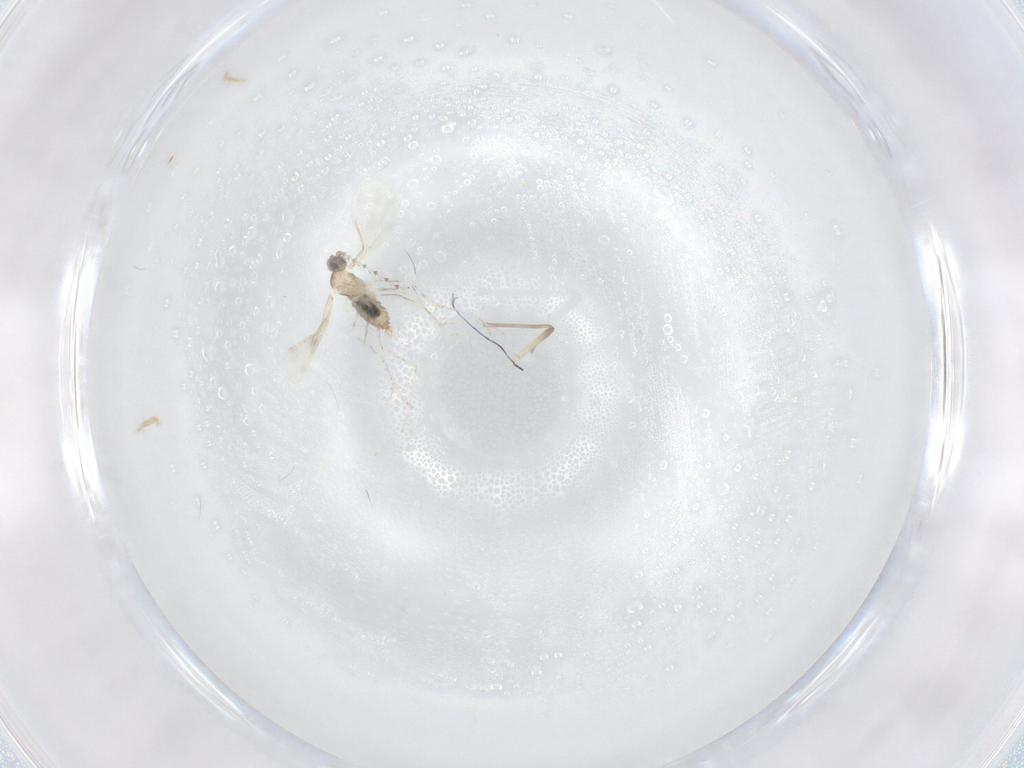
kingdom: Animalia
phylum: Arthropoda
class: Insecta
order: Diptera
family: Cecidomyiidae
